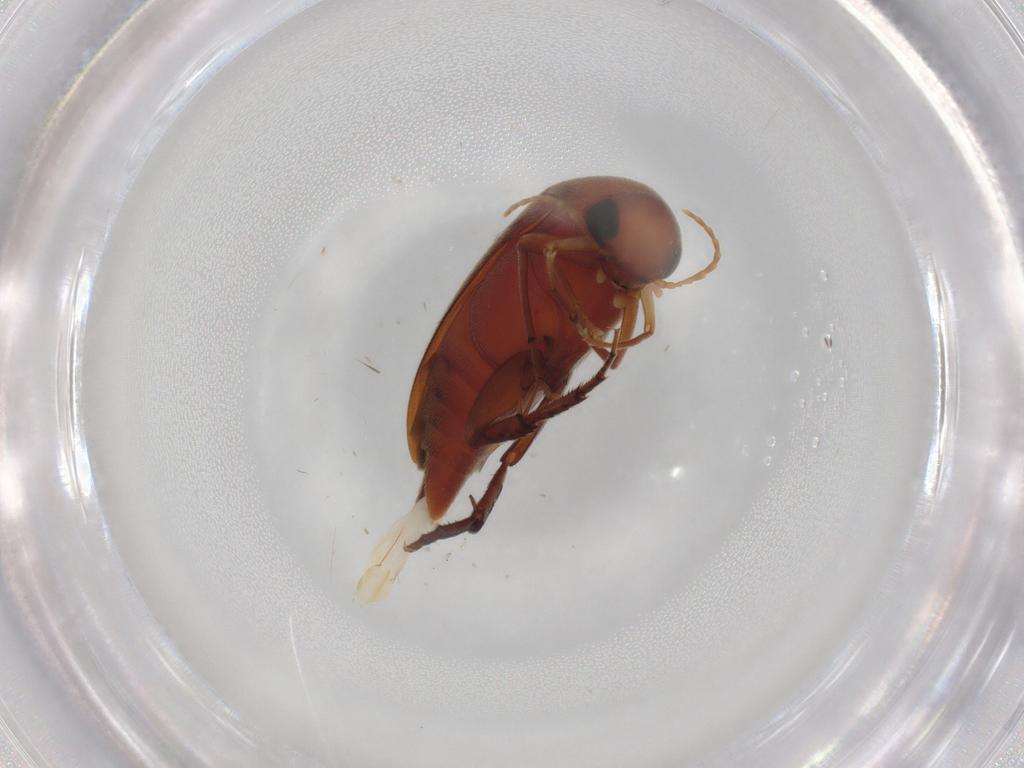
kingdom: Animalia
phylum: Arthropoda
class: Insecta
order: Coleoptera
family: Mordellidae
